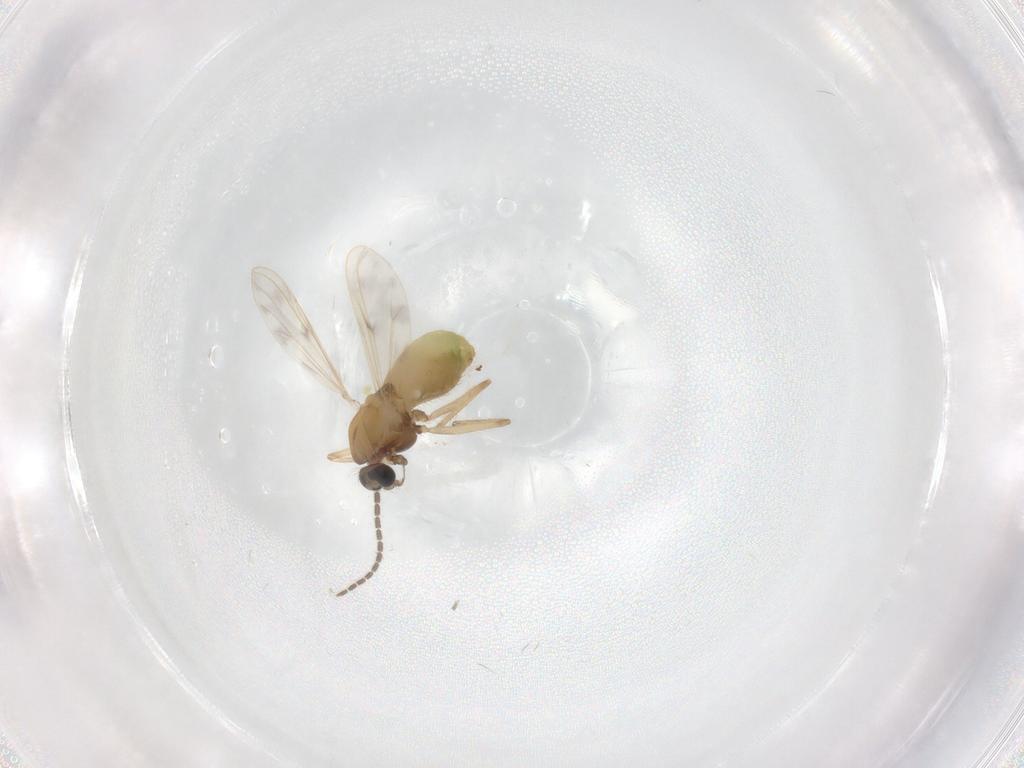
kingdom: Animalia
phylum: Arthropoda
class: Insecta
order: Diptera
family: Chironomidae
